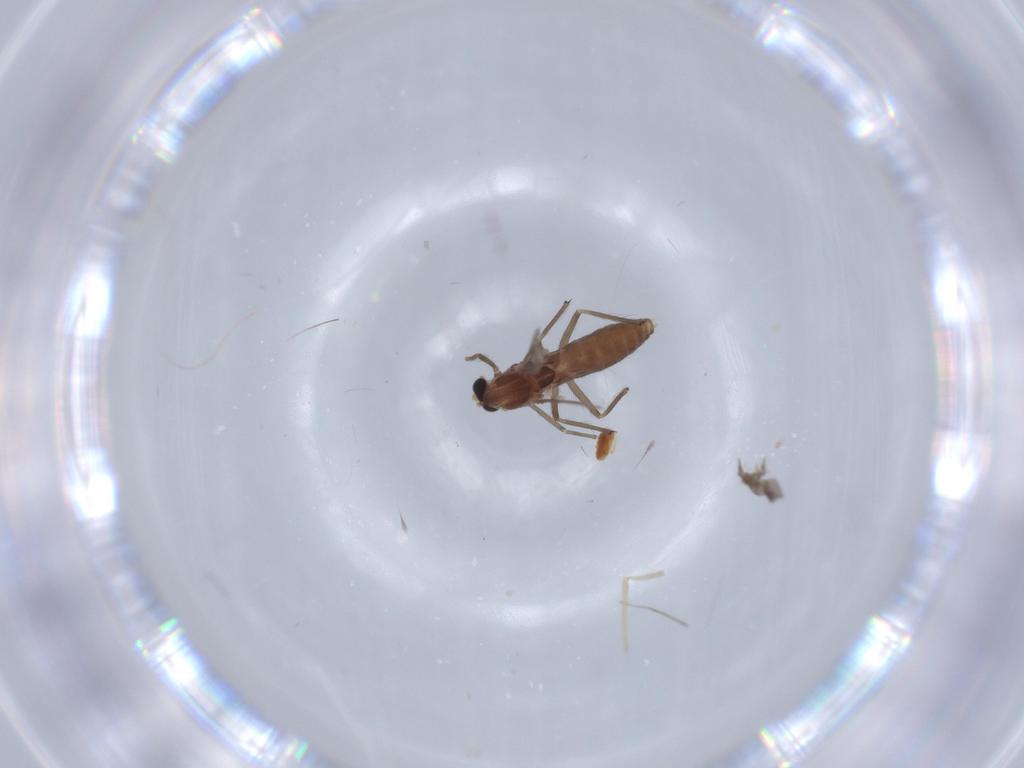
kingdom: Animalia
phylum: Arthropoda
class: Insecta
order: Diptera
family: Chironomidae
